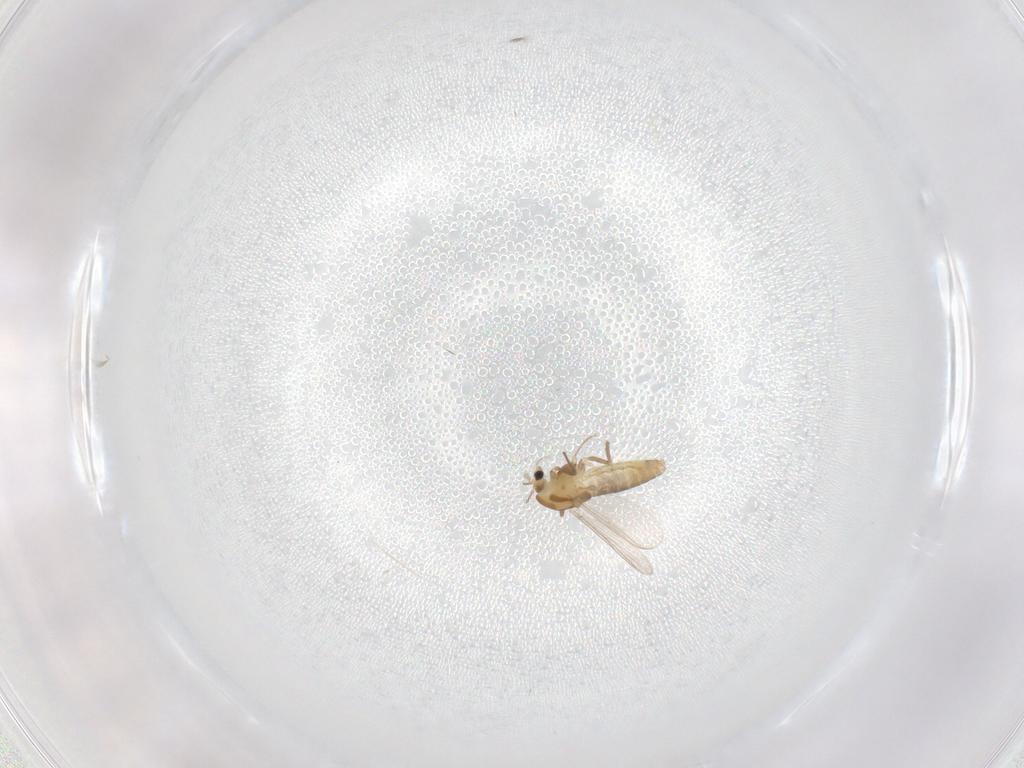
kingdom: Animalia
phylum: Arthropoda
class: Insecta
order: Diptera
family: Chironomidae
